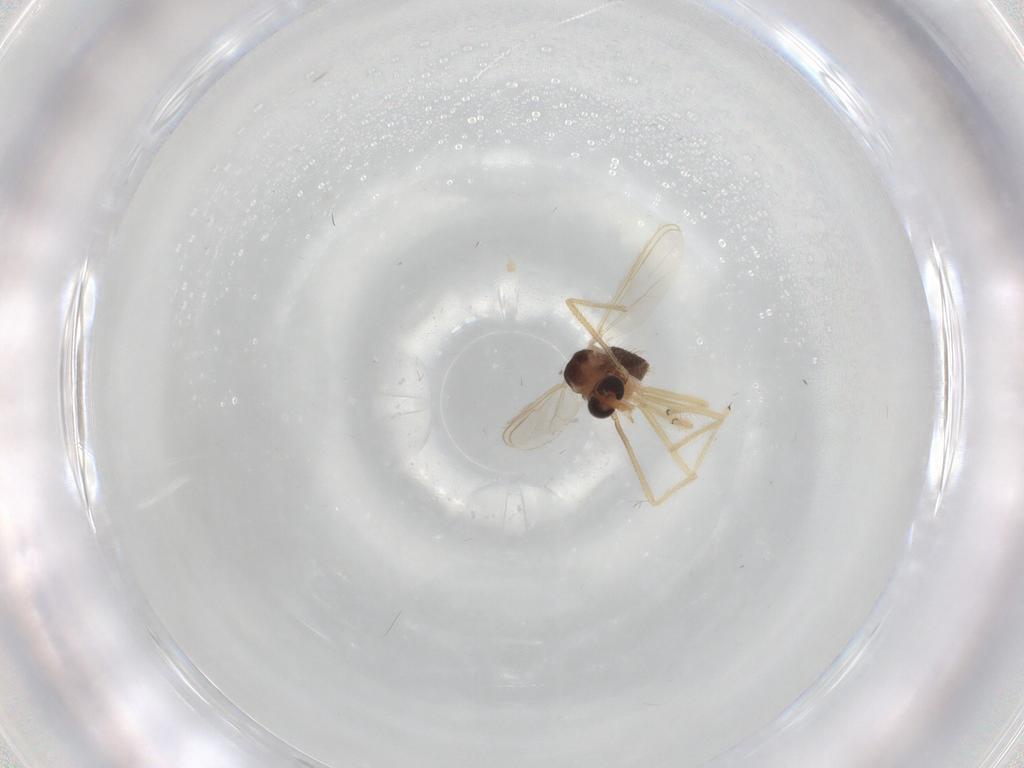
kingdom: Animalia
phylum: Arthropoda
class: Insecta
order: Diptera
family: Chironomidae
